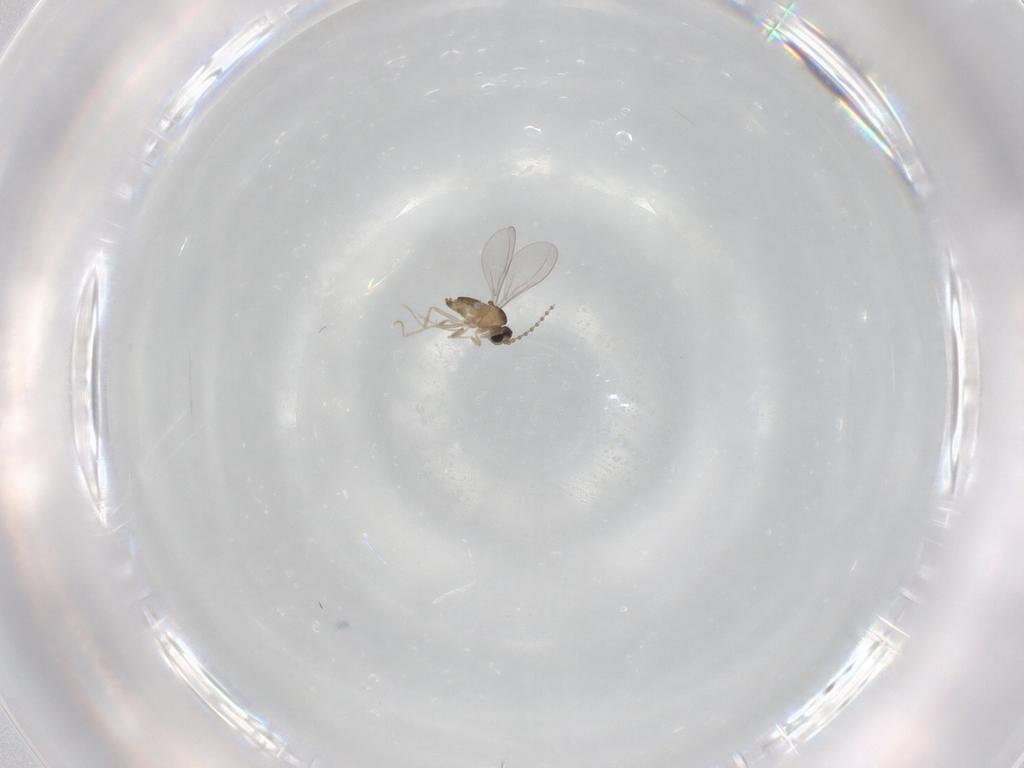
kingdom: Animalia
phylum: Arthropoda
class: Insecta
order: Diptera
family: Cecidomyiidae
